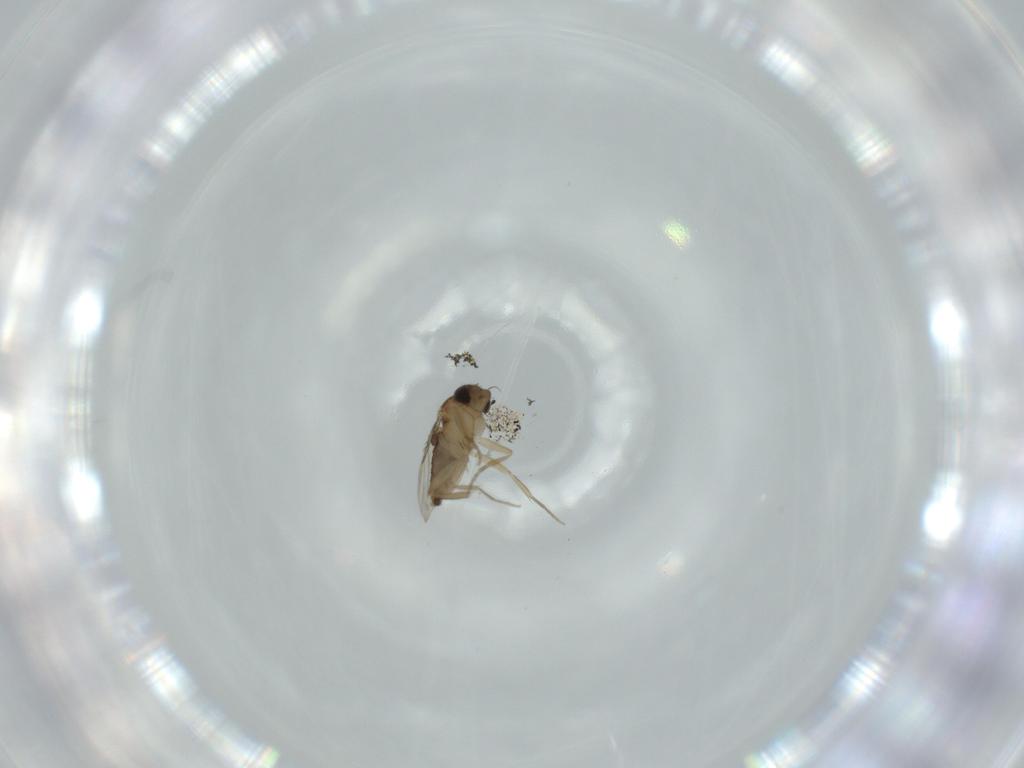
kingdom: Animalia
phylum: Arthropoda
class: Insecta
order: Diptera
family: Phoridae
